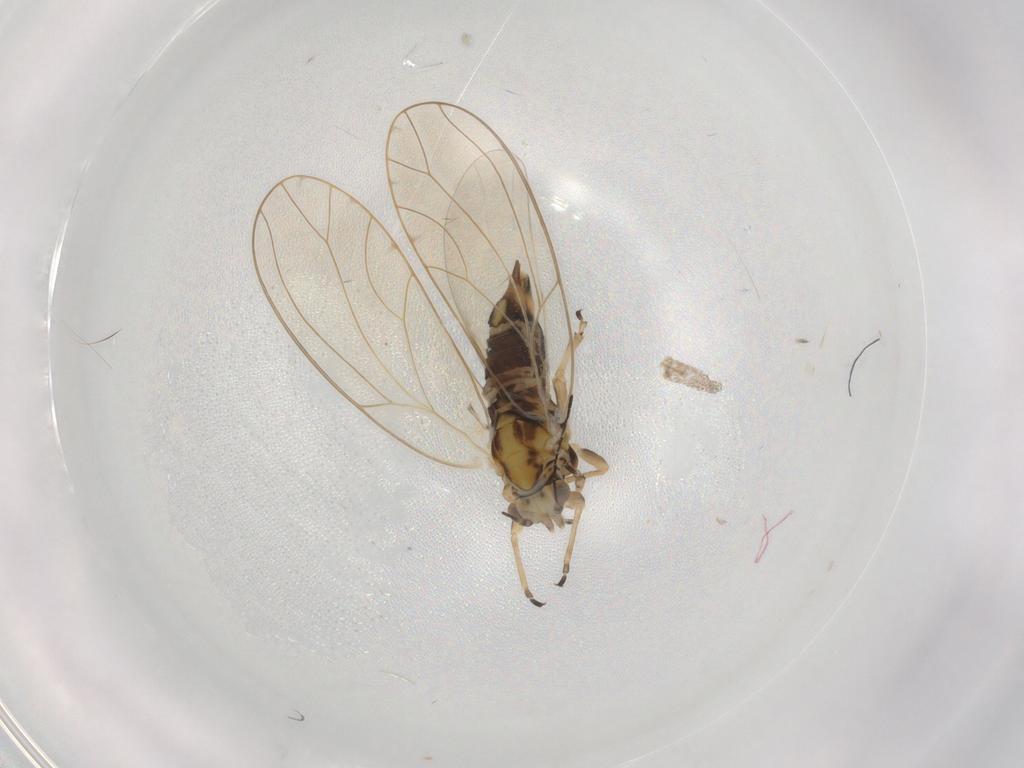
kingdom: Animalia
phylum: Arthropoda
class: Insecta
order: Hemiptera
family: Triozidae
